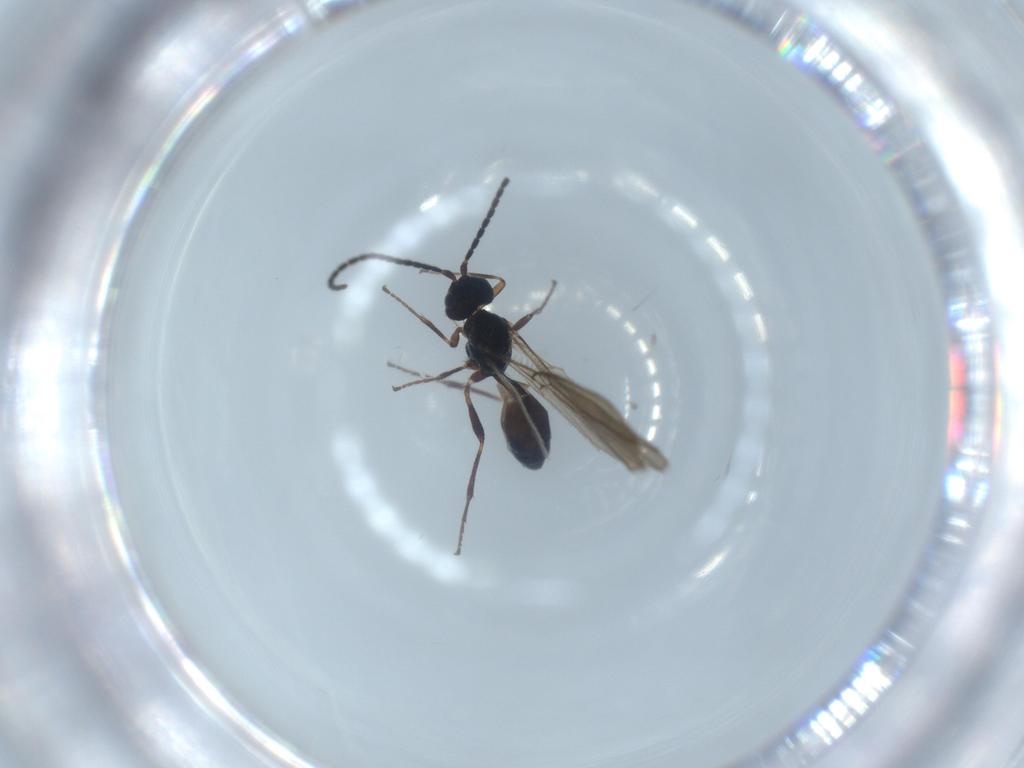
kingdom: Animalia
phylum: Arthropoda
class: Insecta
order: Hymenoptera
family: Braconidae
